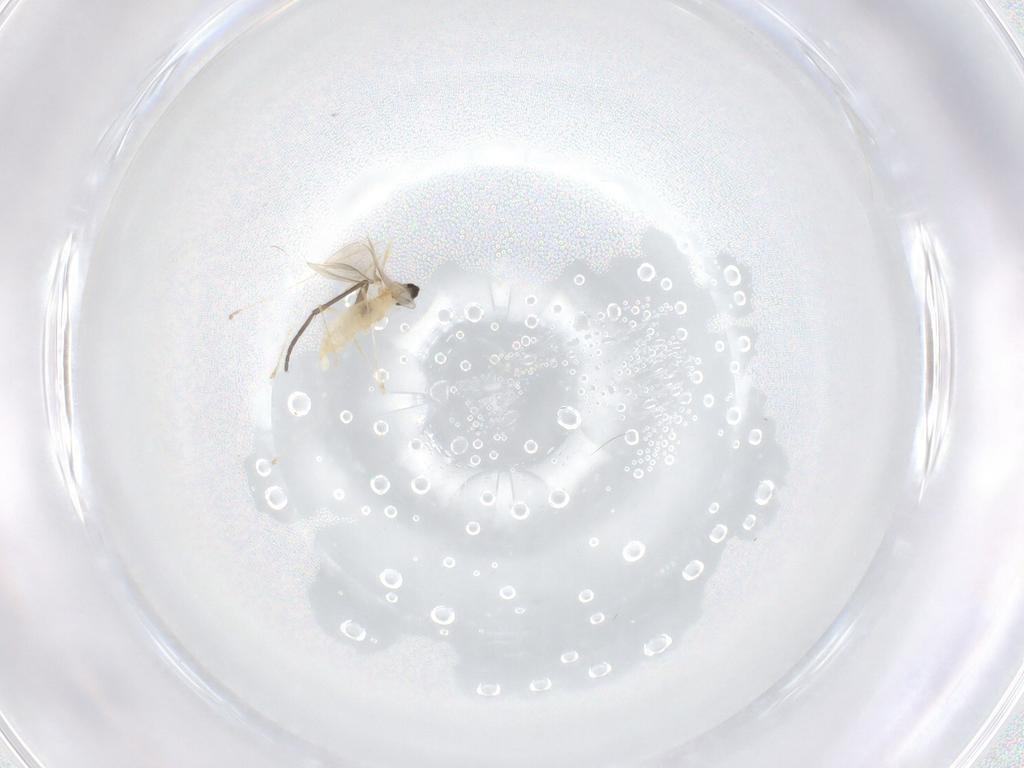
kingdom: Animalia
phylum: Arthropoda
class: Insecta
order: Diptera
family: Cecidomyiidae
